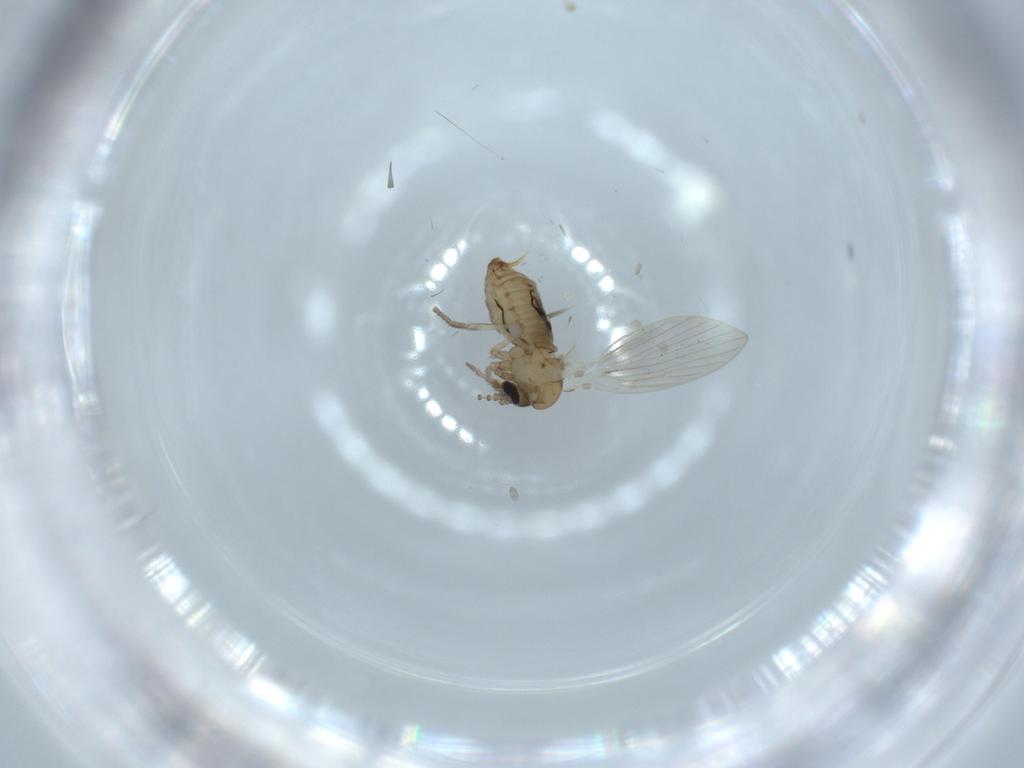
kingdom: Animalia
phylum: Arthropoda
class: Insecta
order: Diptera
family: Psychodidae
